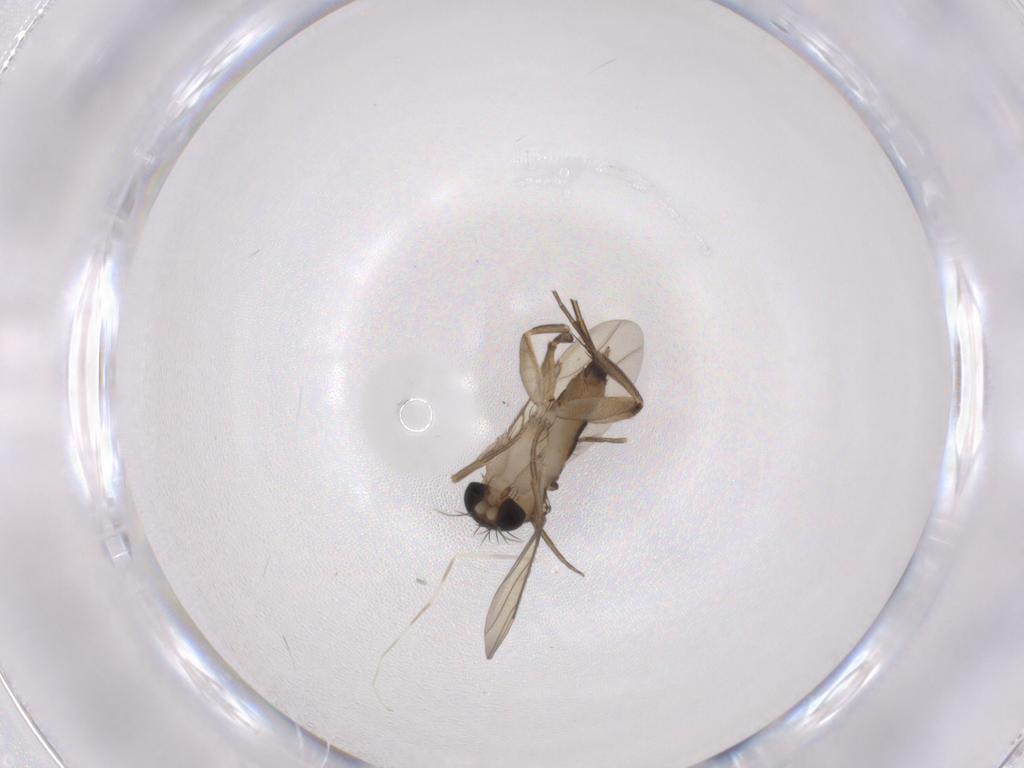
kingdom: Animalia
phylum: Arthropoda
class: Insecta
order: Diptera
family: Phoridae
